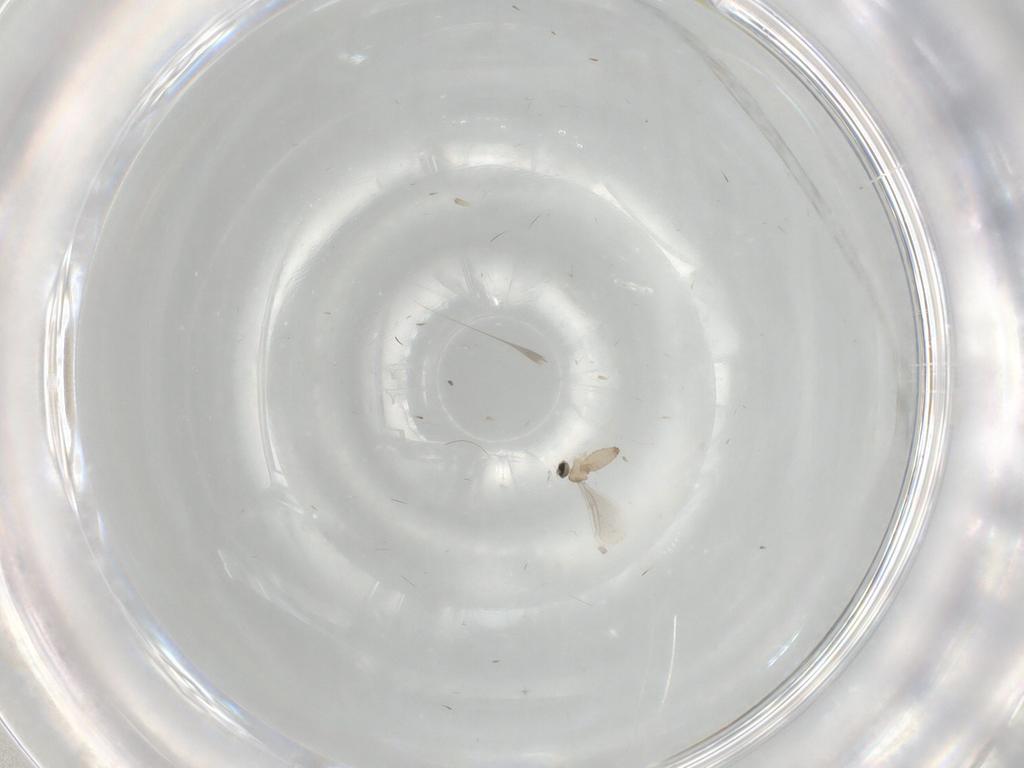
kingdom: Animalia
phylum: Arthropoda
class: Insecta
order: Diptera
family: Cecidomyiidae
